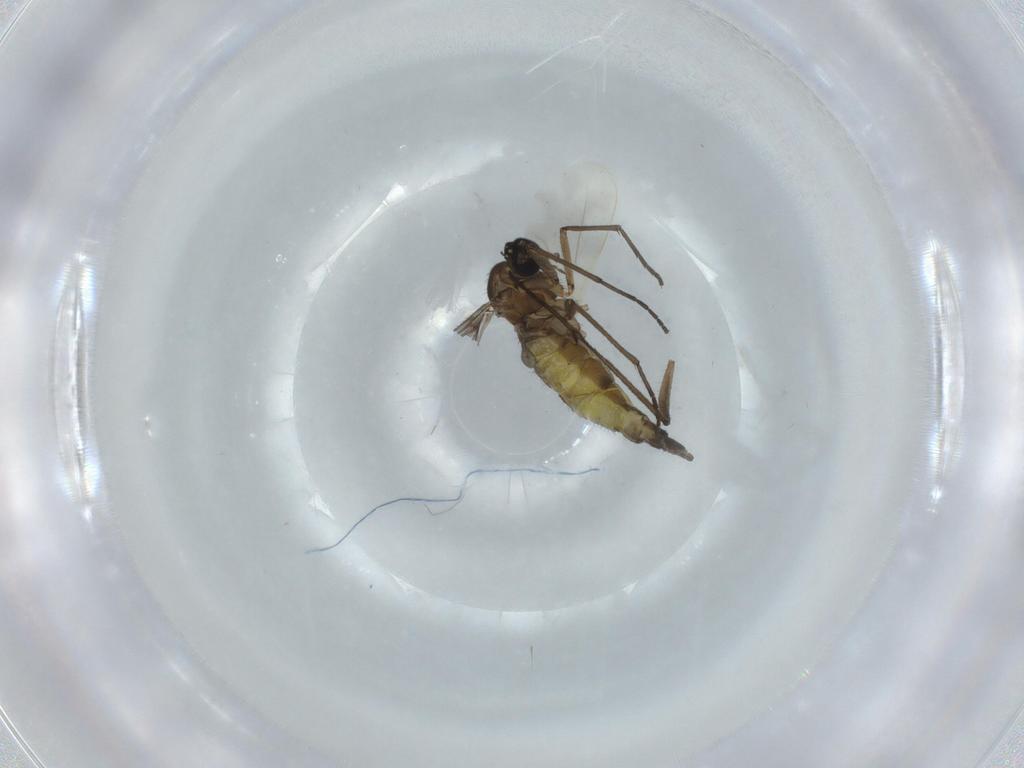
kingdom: Animalia
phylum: Arthropoda
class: Insecta
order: Diptera
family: Sciaridae
